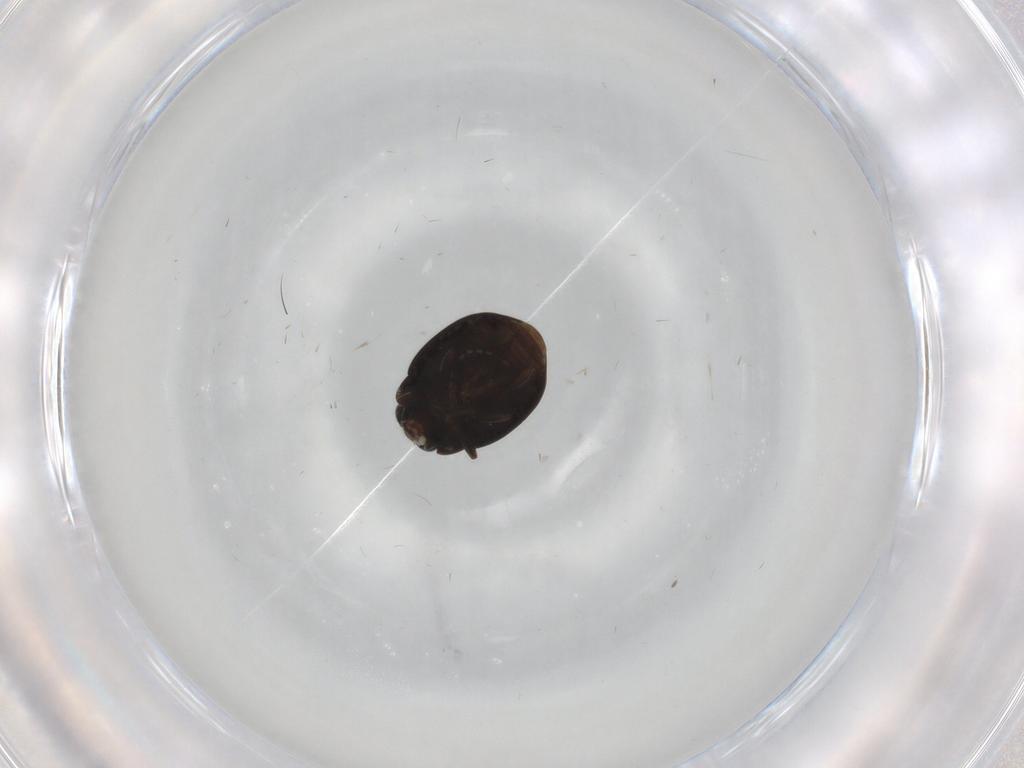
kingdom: Animalia
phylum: Arthropoda
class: Insecta
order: Coleoptera
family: Coccinellidae
